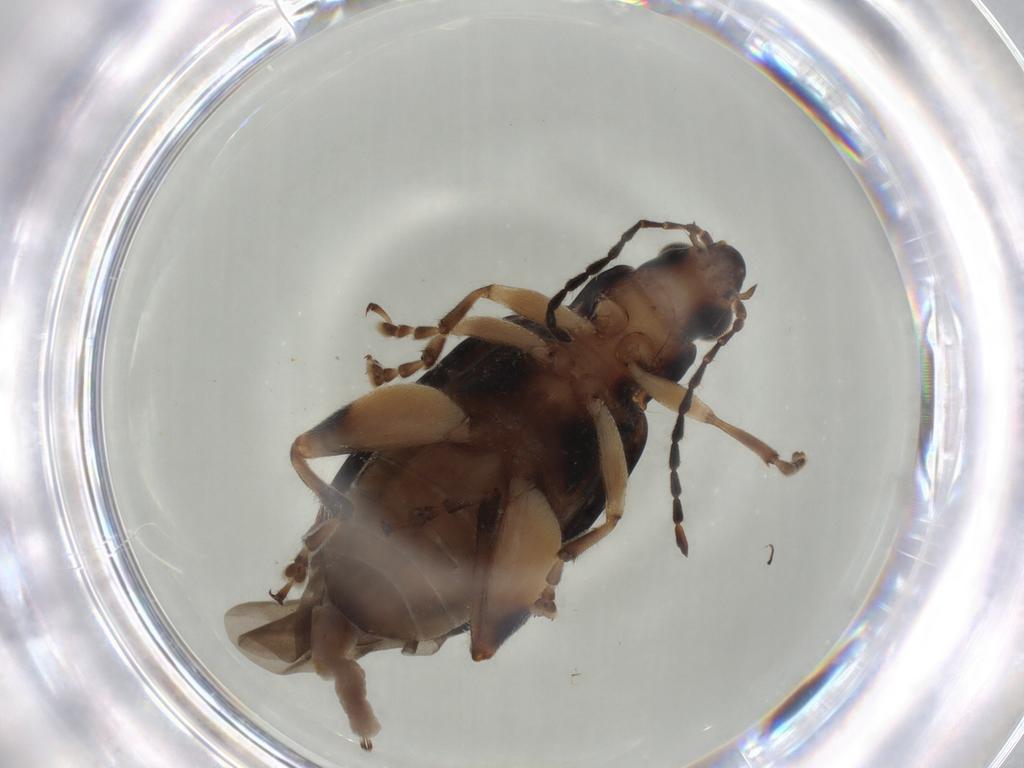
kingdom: Animalia
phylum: Arthropoda
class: Insecta
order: Coleoptera
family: Chrysomelidae
